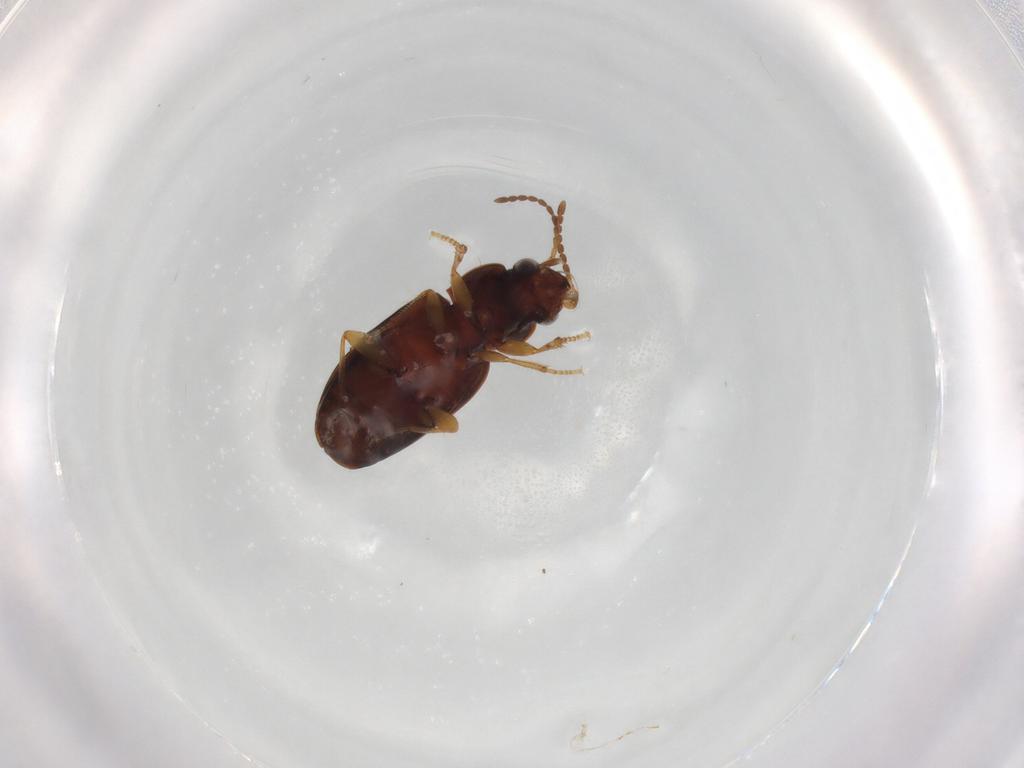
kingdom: Animalia
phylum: Arthropoda
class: Insecta
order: Coleoptera
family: Carabidae
